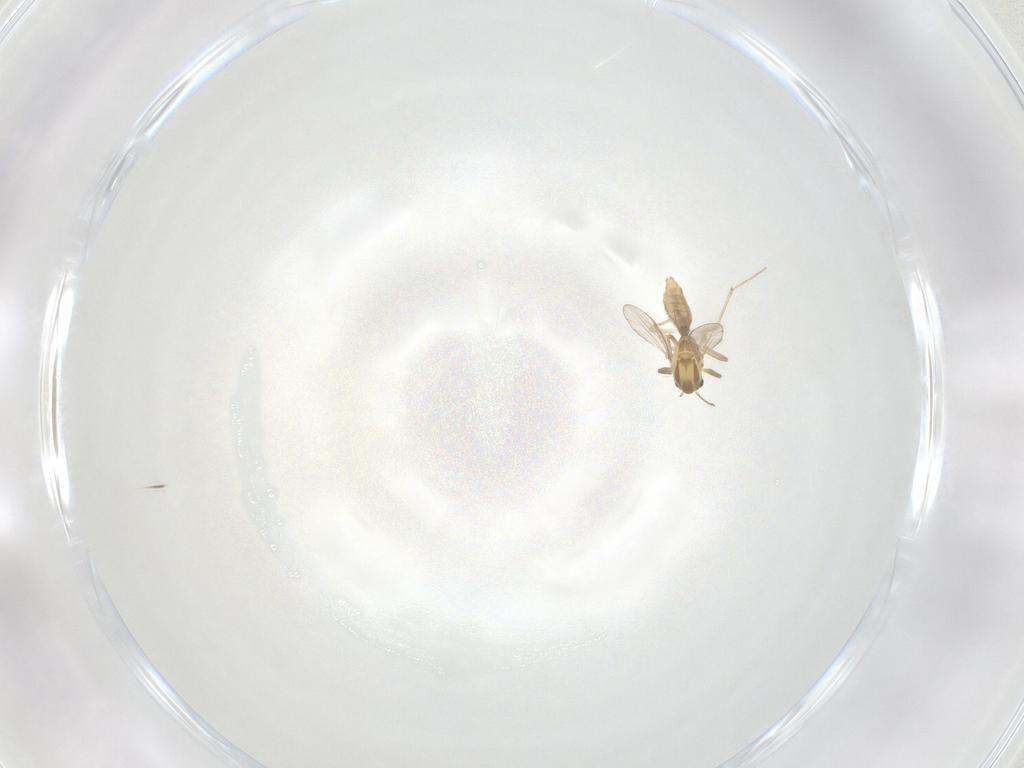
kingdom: Animalia
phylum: Arthropoda
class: Insecta
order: Diptera
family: Chironomidae
